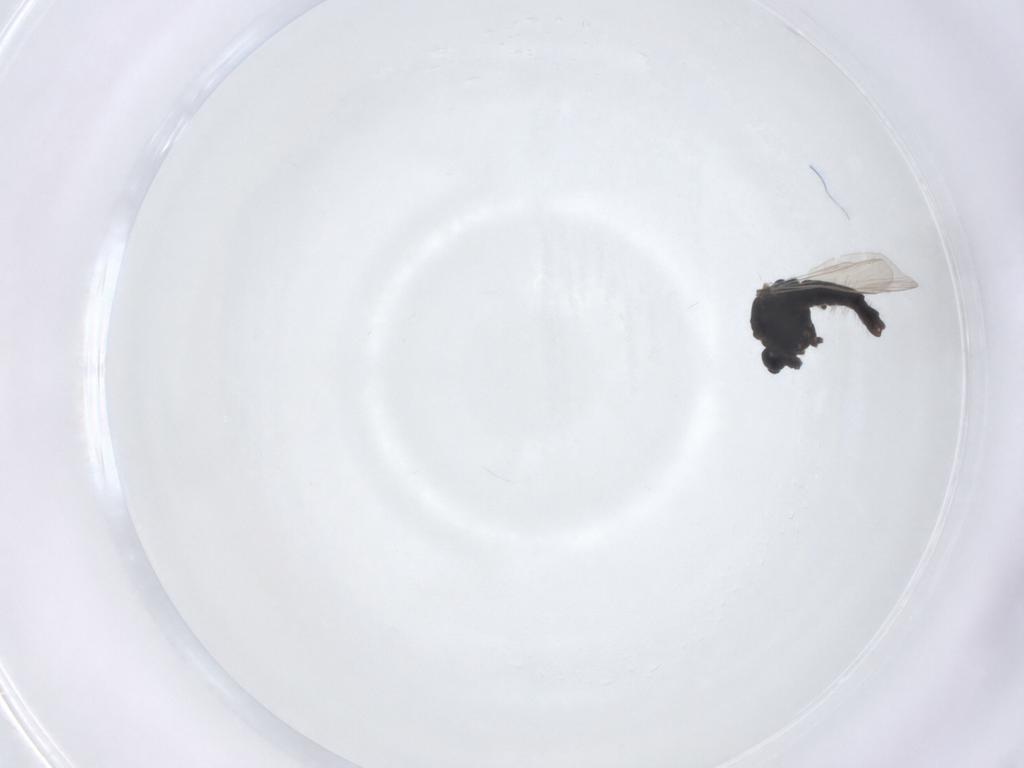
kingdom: Animalia
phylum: Arthropoda
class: Insecta
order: Diptera
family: Chironomidae
